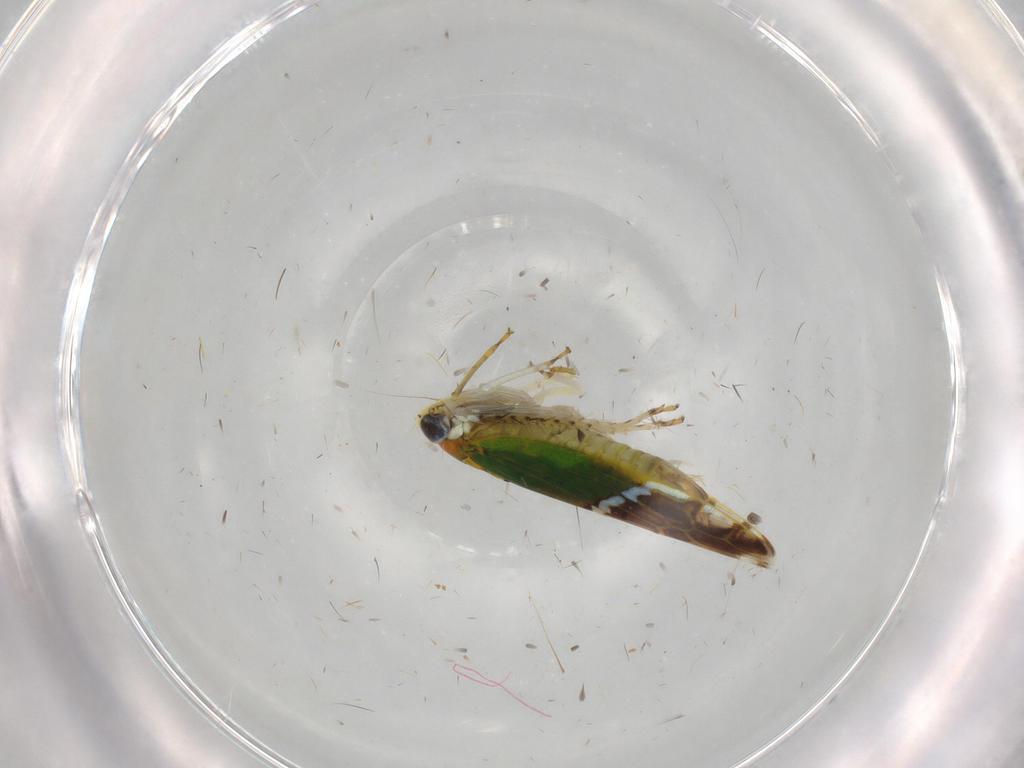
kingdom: Animalia
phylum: Arthropoda
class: Insecta
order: Hemiptera
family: Cicadellidae
